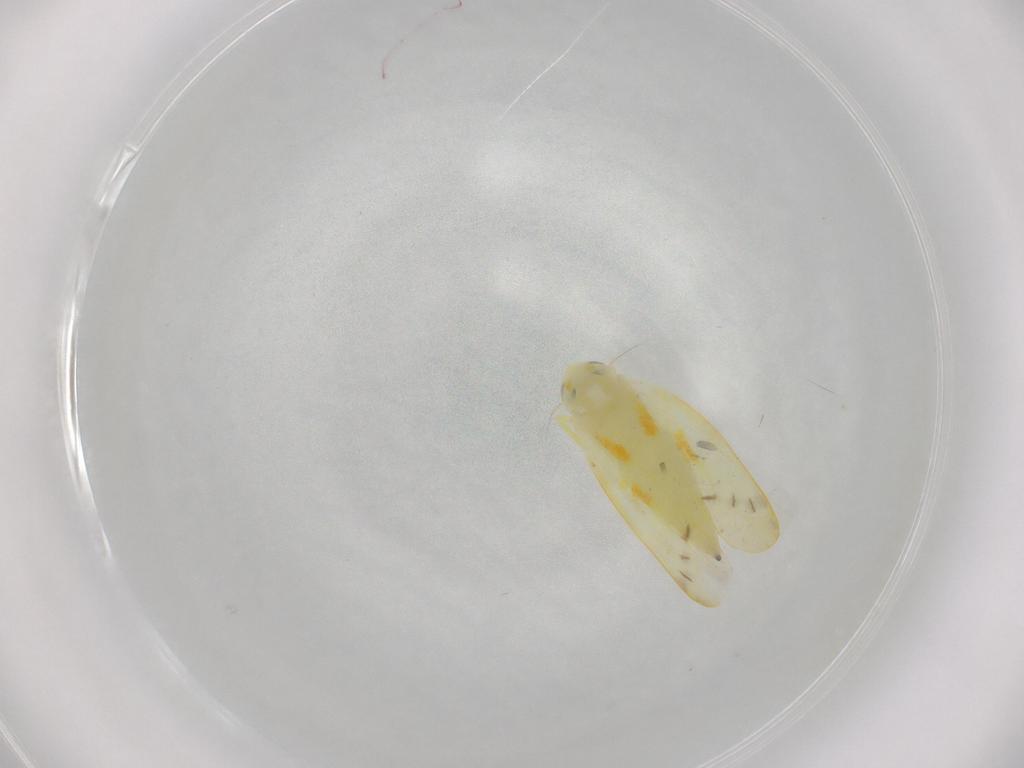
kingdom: Animalia
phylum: Arthropoda
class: Insecta
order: Hemiptera
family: Cicadellidae
